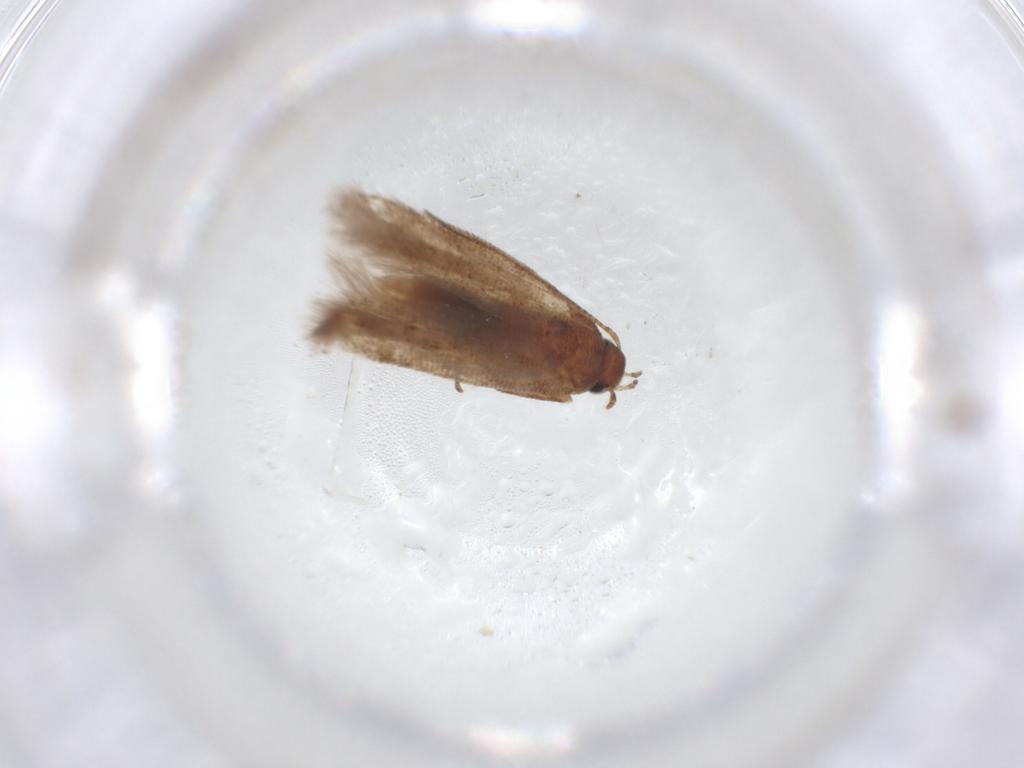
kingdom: Animalia
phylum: Arthropoda
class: Insecta
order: Lepidoptera
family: Gelechiidae
